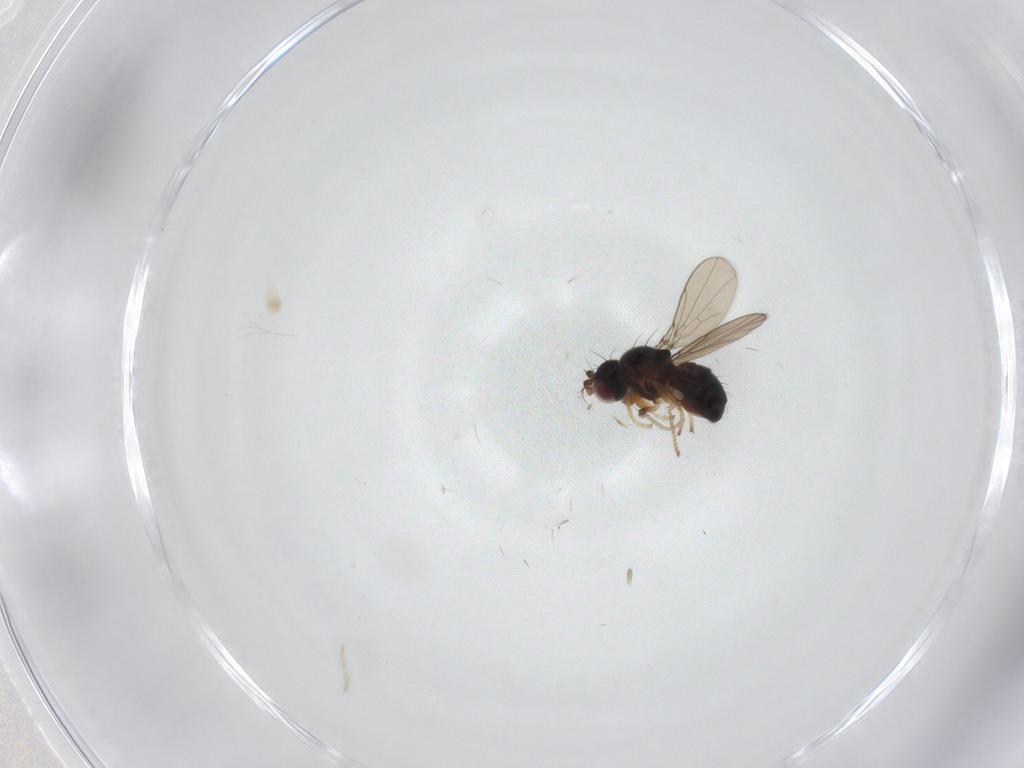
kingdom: Animalia
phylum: Arthropoda
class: Insecta
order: Diptera
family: Ephydridae
